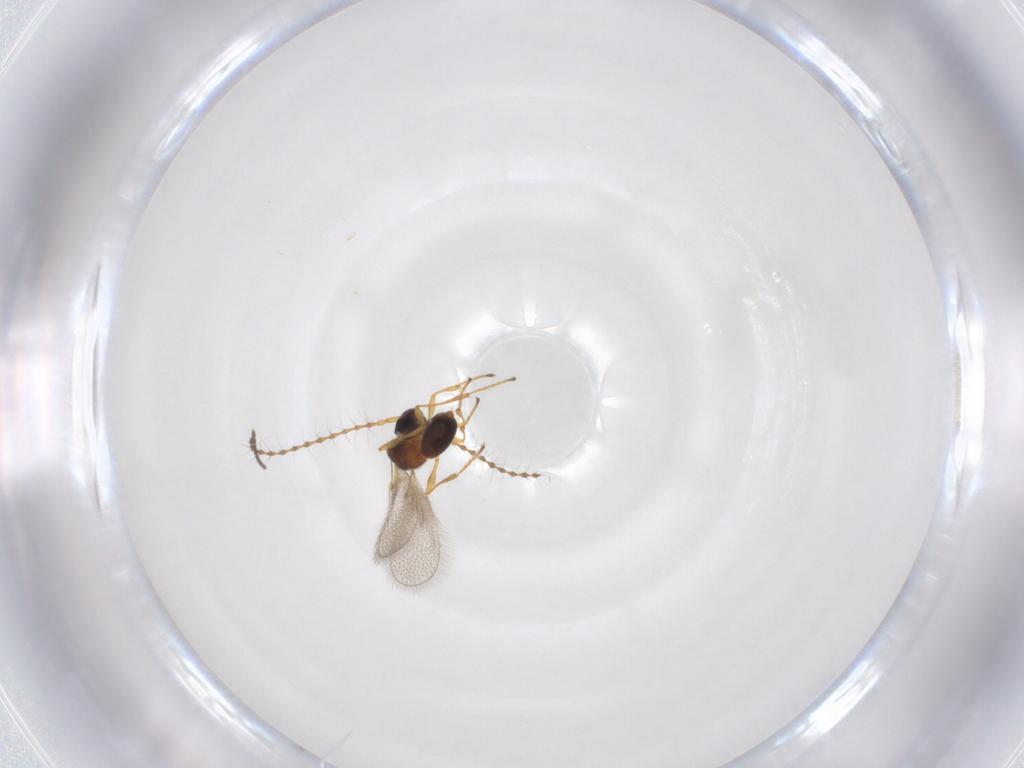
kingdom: Animalia
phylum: Arthropoda
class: Insecta
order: Hymenoptera
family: Diapriidae
